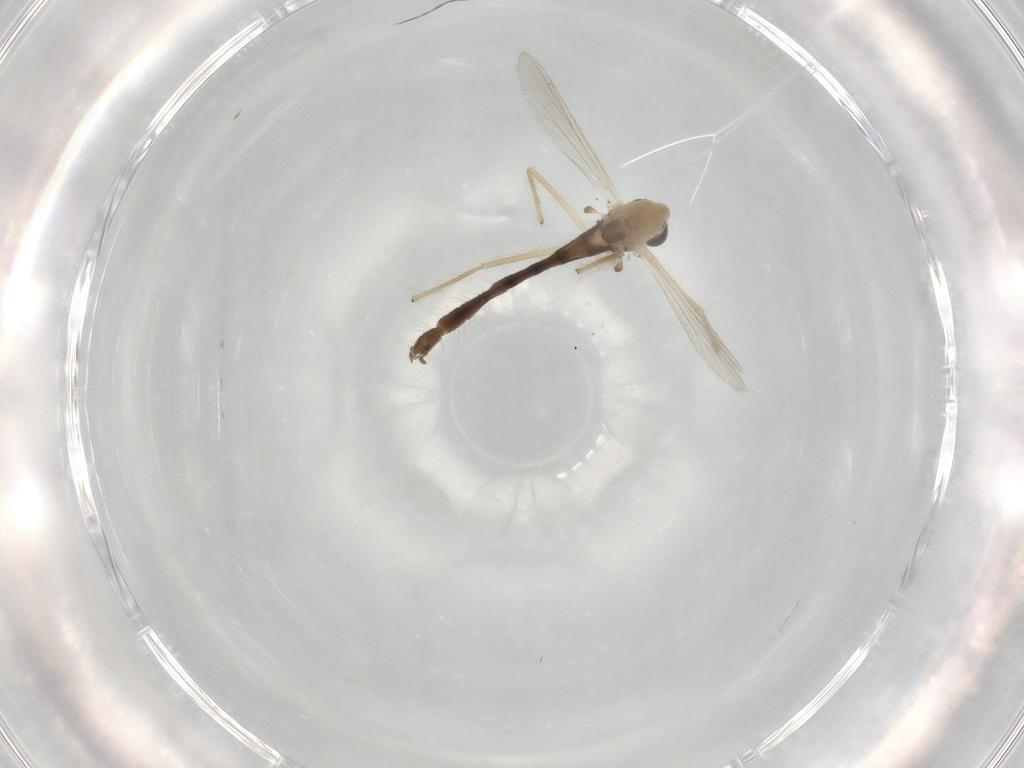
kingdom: Animalia
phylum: Arthropoda
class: Insecta
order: Diptera
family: Chironomidae
